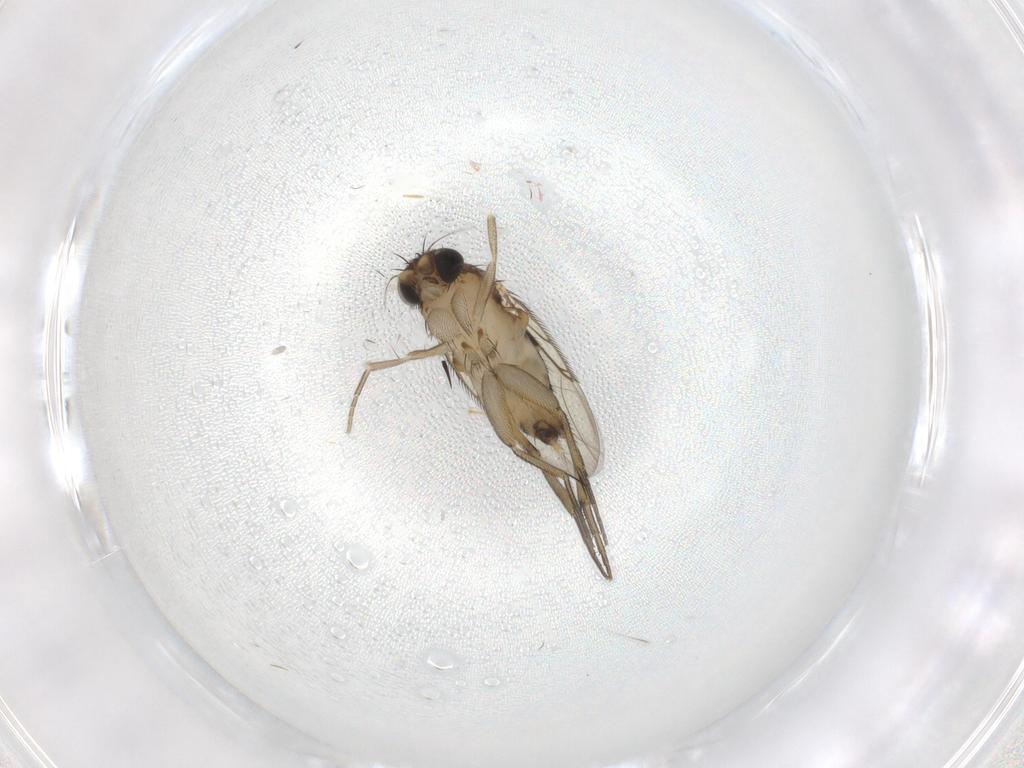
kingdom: Animalia
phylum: Arthropoda
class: Insecta
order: Diptera
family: Phoridae
